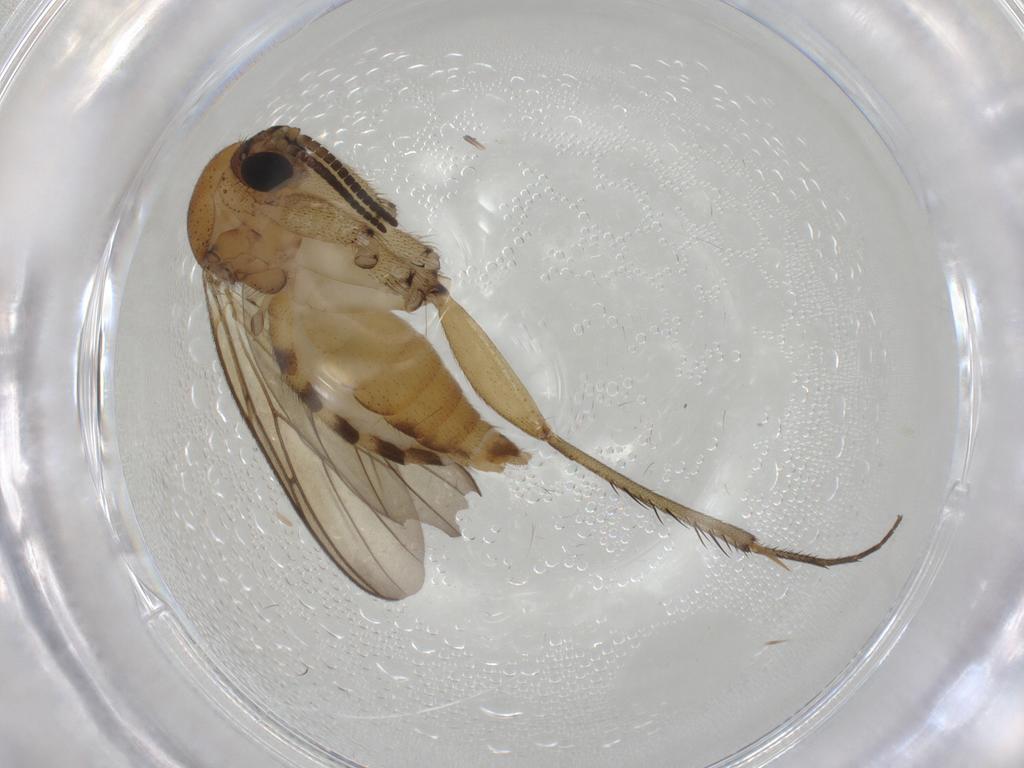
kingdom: Animalia
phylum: Arthropoda
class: Insecta
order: Diptera
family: Mycetophilidae
